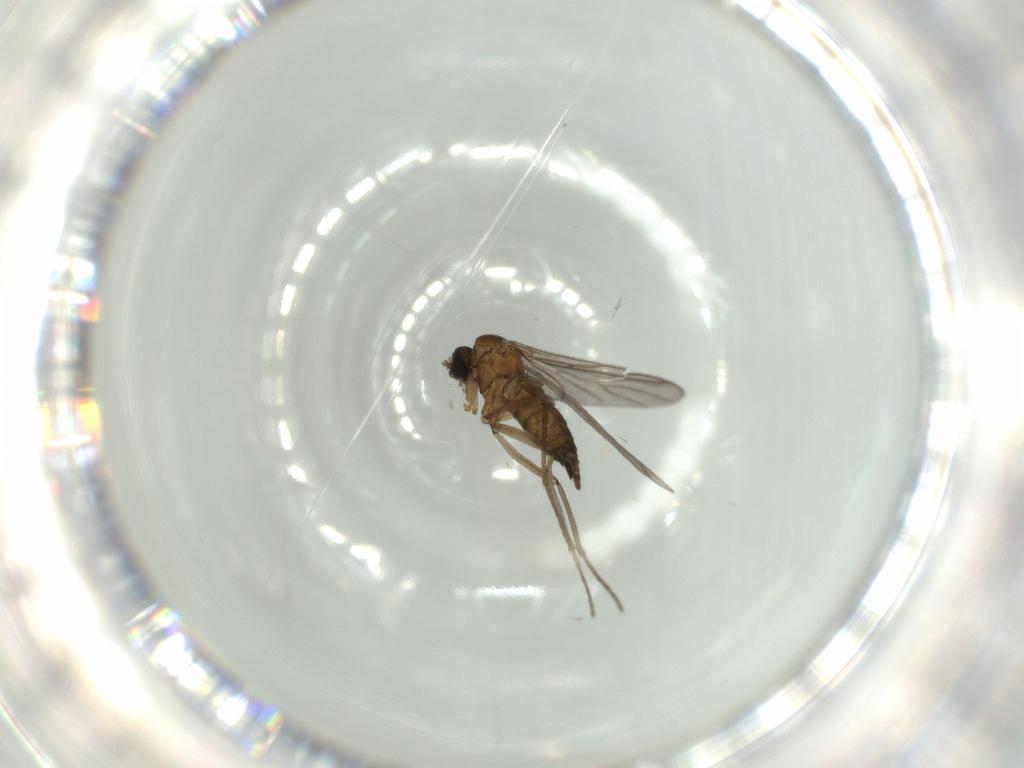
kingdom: Animalia
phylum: Arthropoda
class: Insecta
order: Diptera
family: Sciaridae
